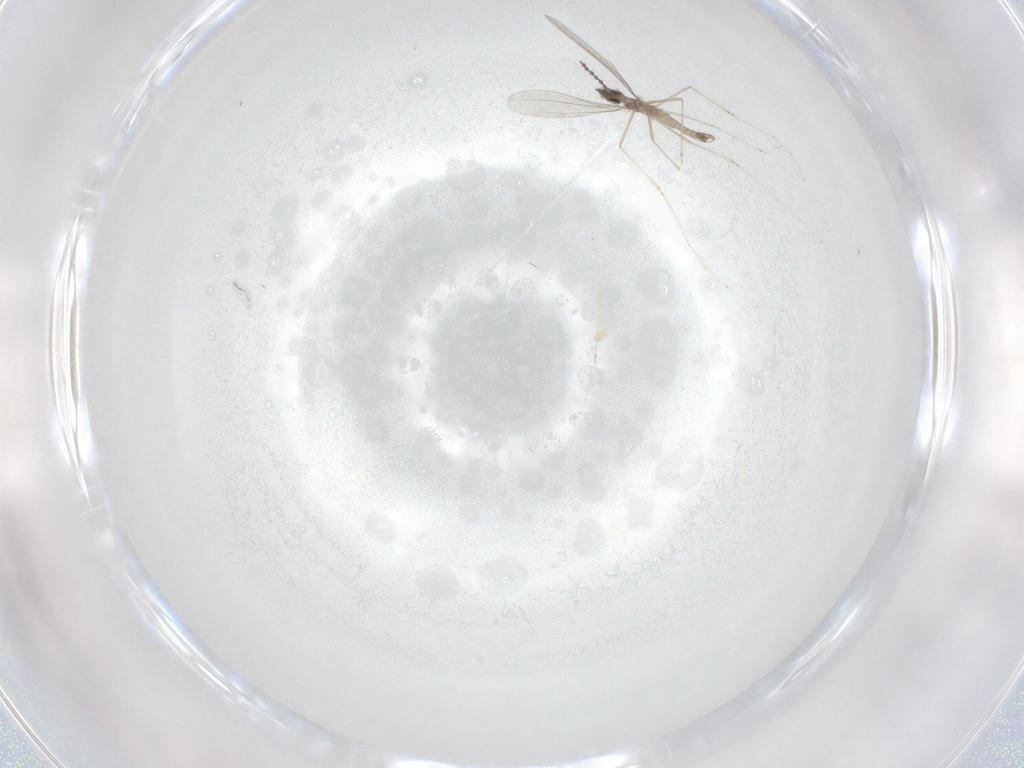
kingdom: Animalia
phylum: Arthropoda
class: Insecta
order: Diptera
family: Cecidomyiidae
